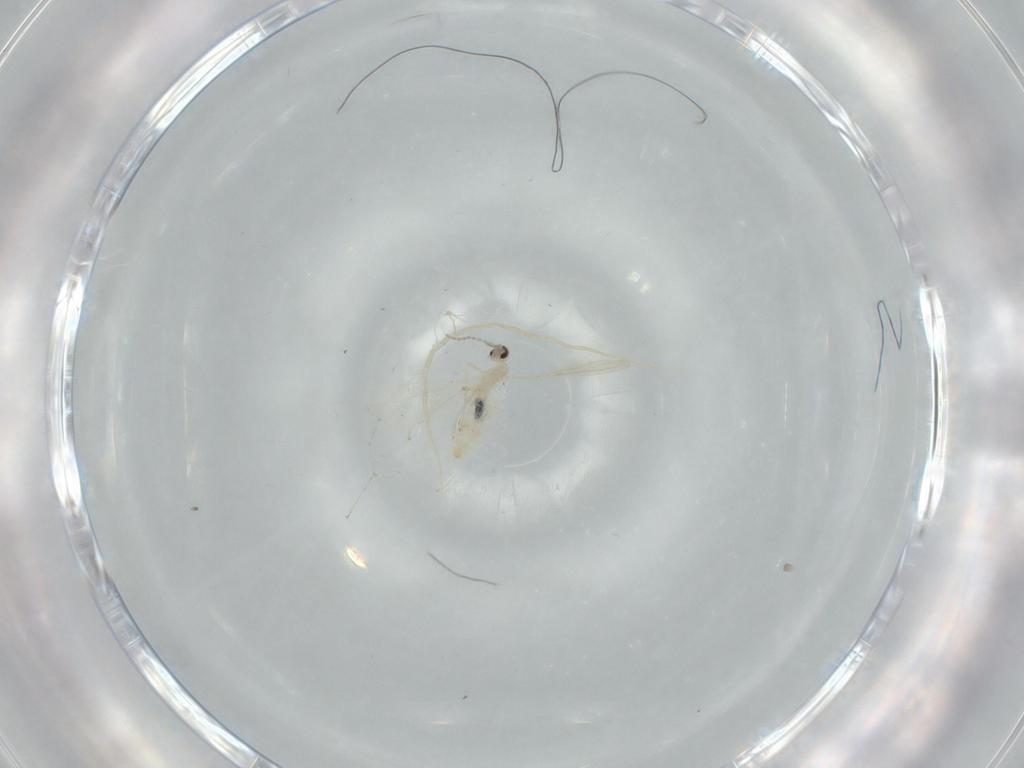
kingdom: Animalia
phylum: Arthropoda
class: Insecta
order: Diptera
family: Cecidomyiidae
